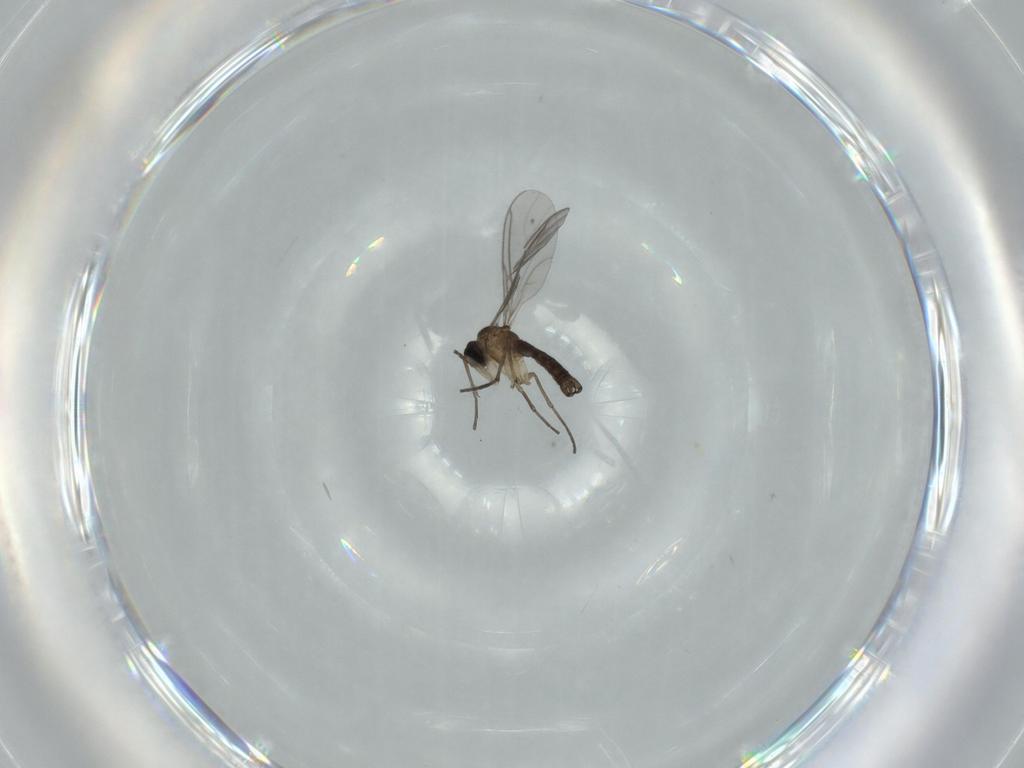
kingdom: Animalia
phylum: Arthropoda
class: Insecta
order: Diptera
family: Sciaridae
